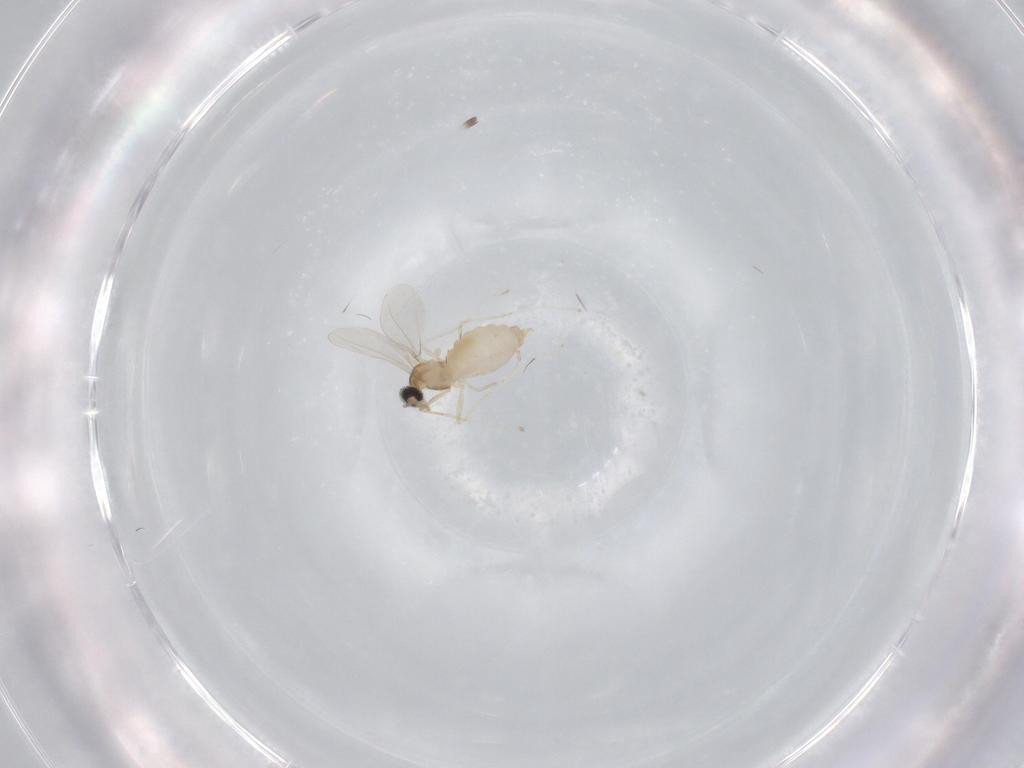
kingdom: Animalia
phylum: Arthropoda
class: Insecta
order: Diptera
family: Cecidomyiidae
